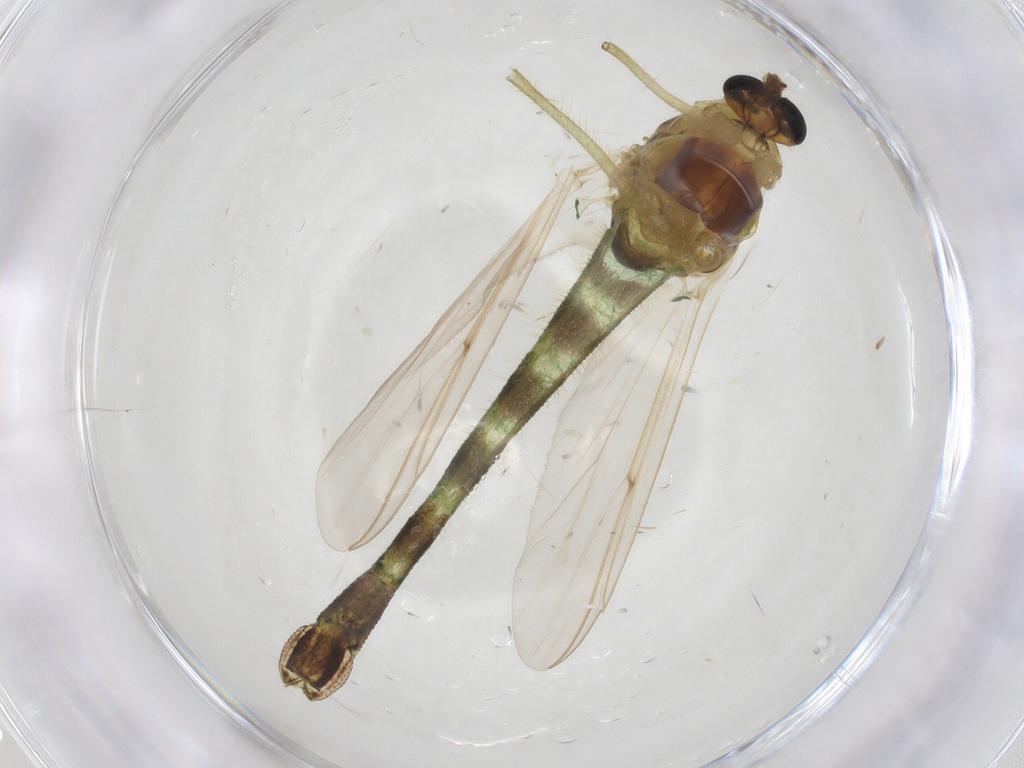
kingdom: Animalia
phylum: Arthropoda
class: Insecta
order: Diptera
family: Chironomidae
